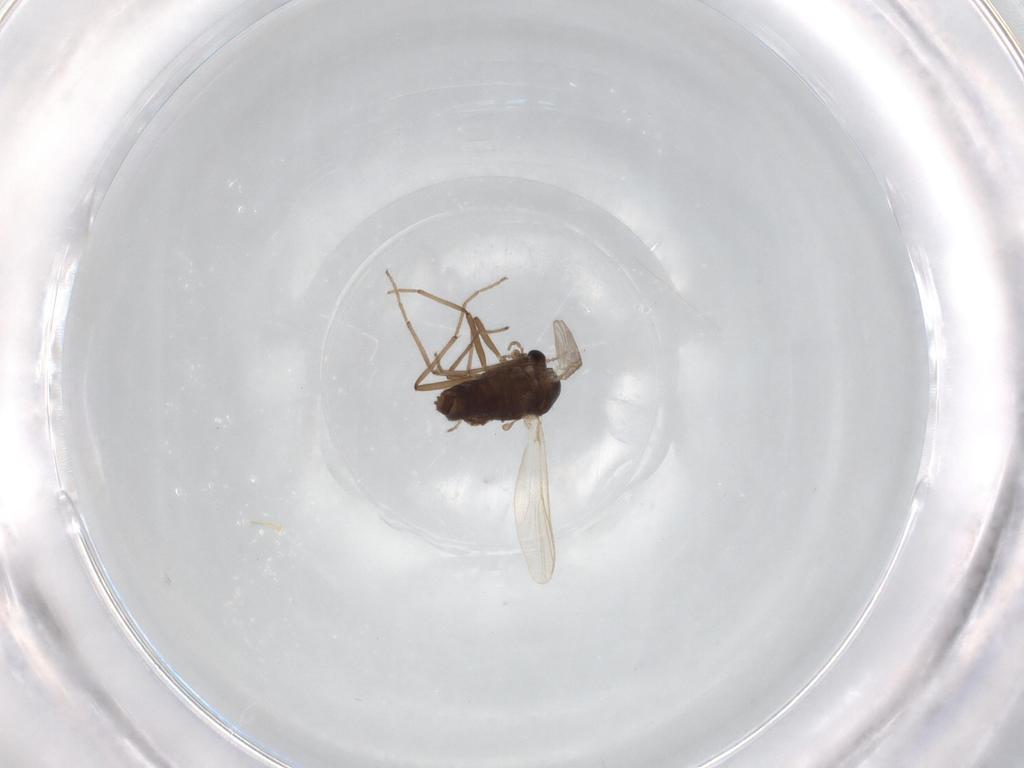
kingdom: Animalia
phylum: Arthropoda
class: Insecta
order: Diptera
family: Chironomidae
